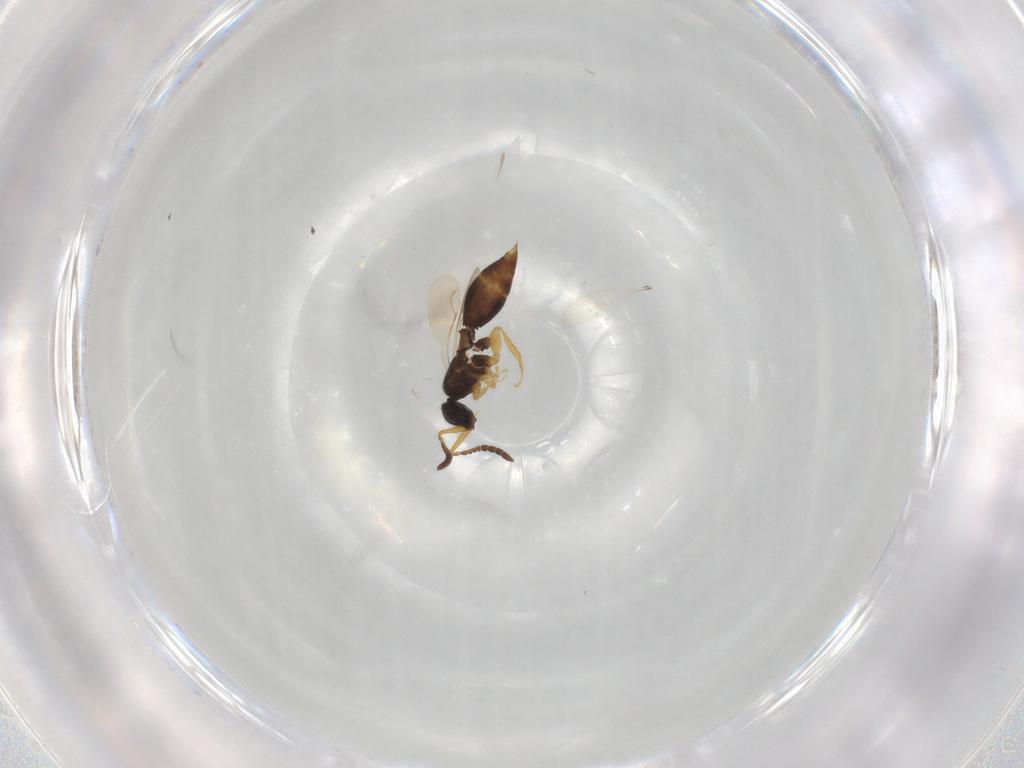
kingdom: Animalia
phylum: Arthropoda
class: Insecta
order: Hymenoptera
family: Ceraphronidae
